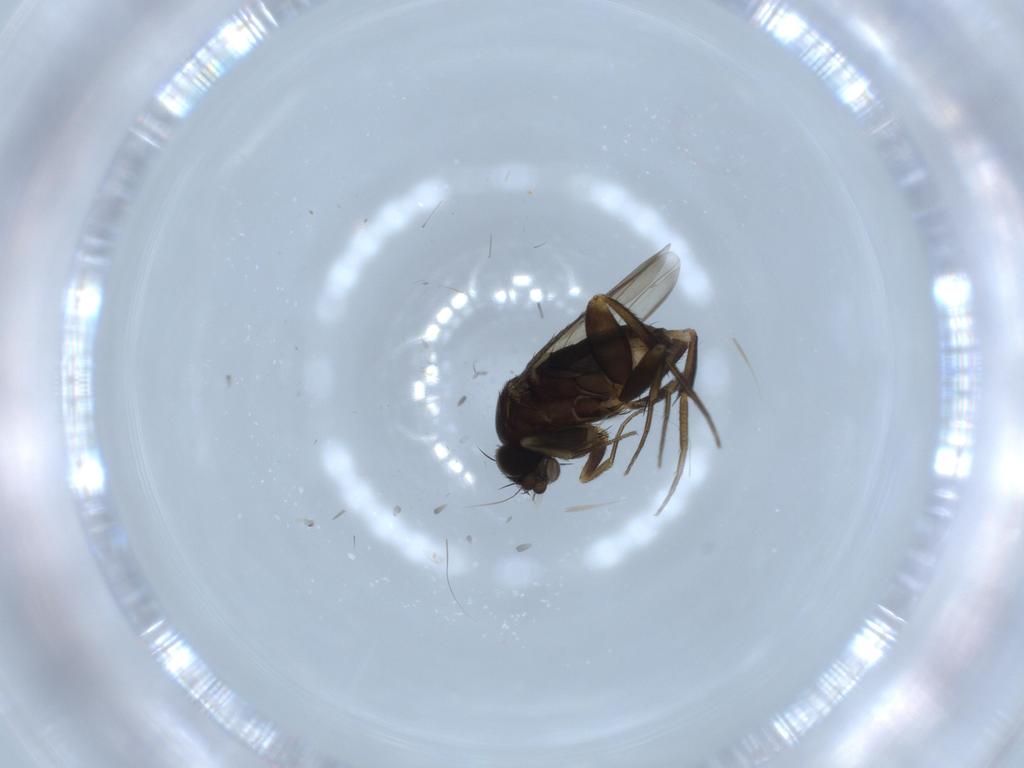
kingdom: Animalia
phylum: Arthropoda
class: Insecta
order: Diptera
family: Phoridae
